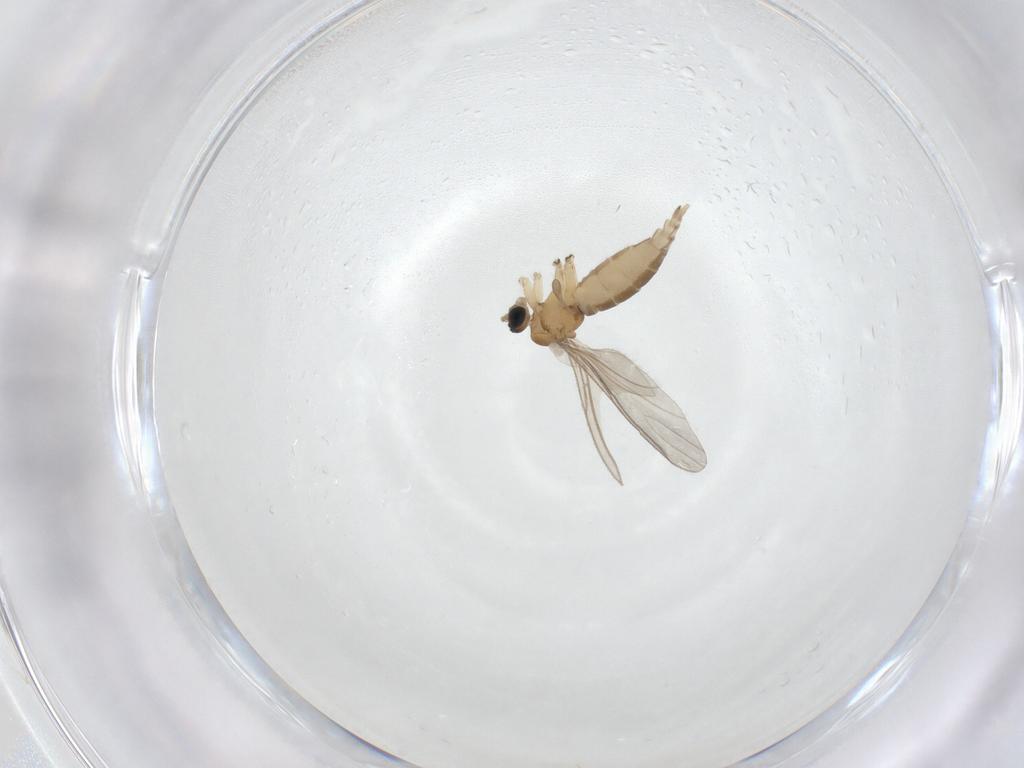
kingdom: Animalia
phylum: Arthropoda
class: Insecta
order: Diptera
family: Sciaridae
